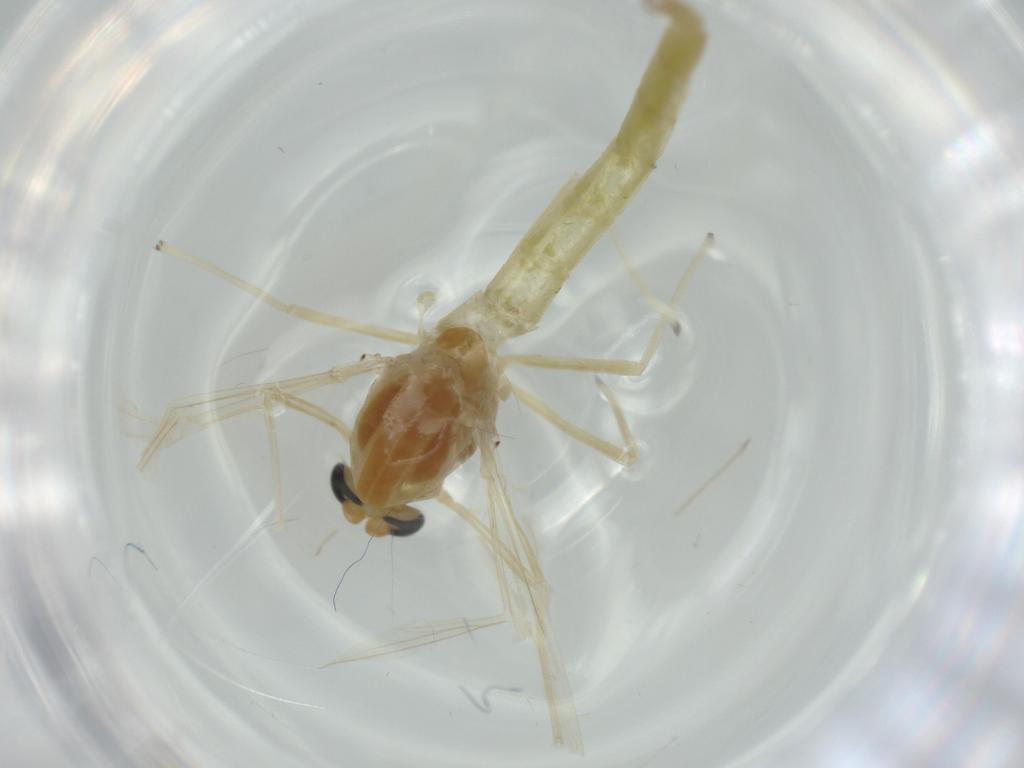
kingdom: Animalia
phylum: Arthropoda
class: Insecta
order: Diptera
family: Chironomidae
